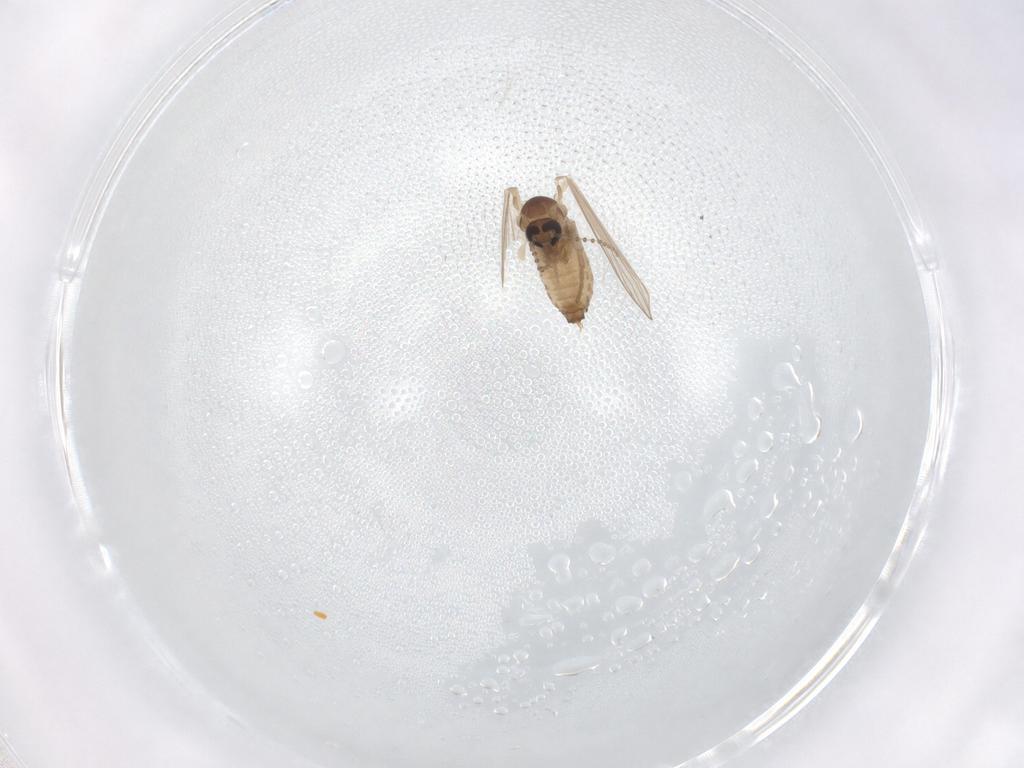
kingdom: Animalia
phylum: Arthropoda
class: Insecta
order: Diptera
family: Psychodidae
